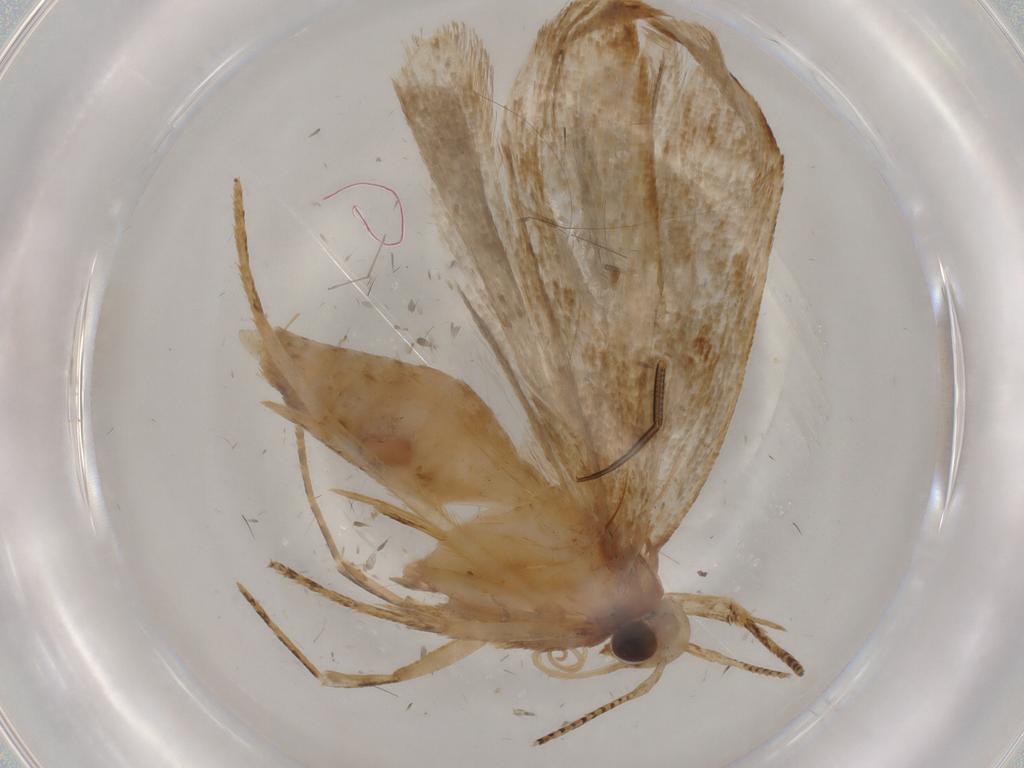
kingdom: Animalia
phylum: Arthropoda
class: Insecta
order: Lepidoptera
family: Gelechiidae
